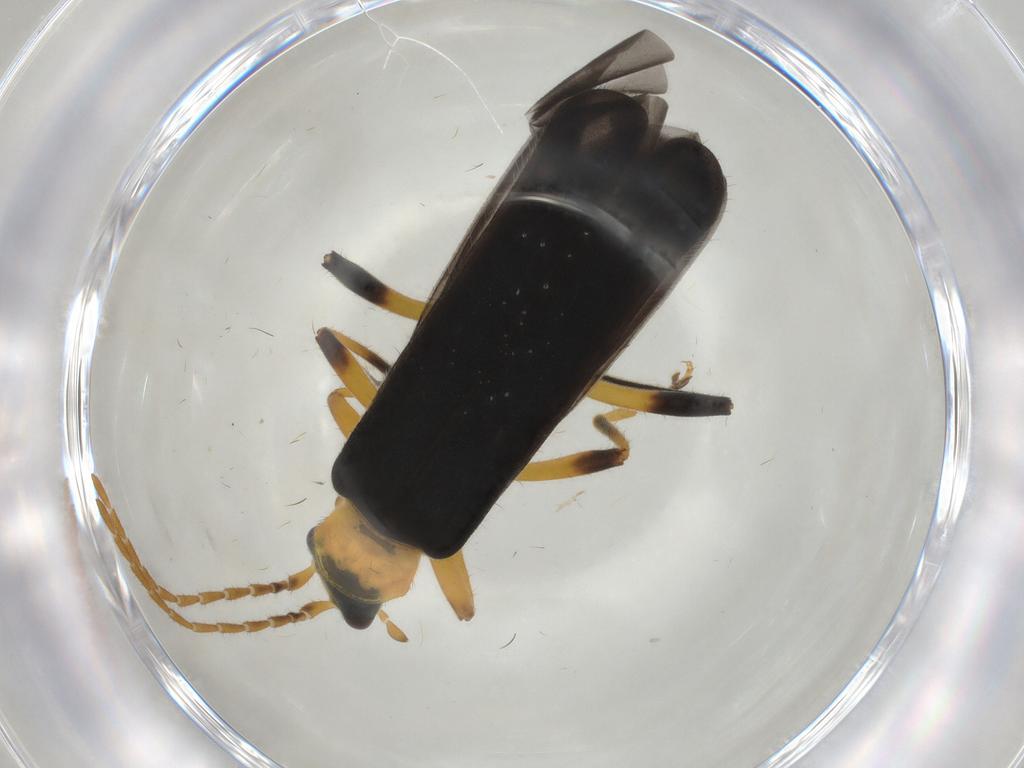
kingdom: Animalia
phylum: Arthropoda
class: Insecta
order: Coleoptera
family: Cantharidae
